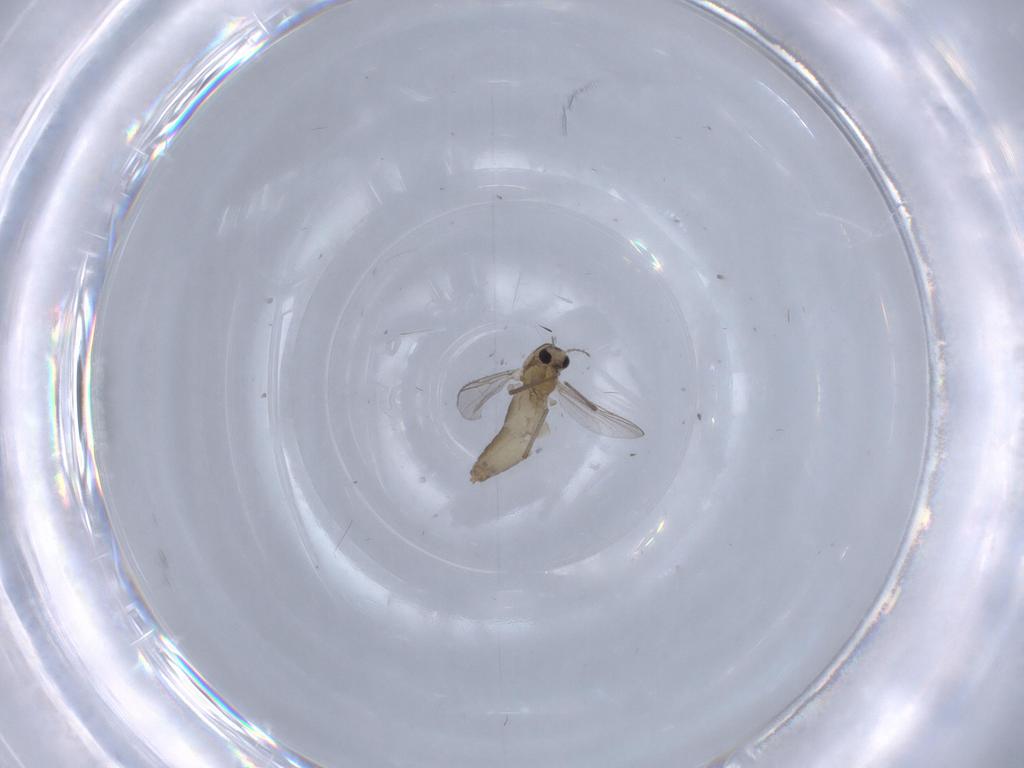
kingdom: Animalia
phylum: Arthropoda
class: Insecta
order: Diptera
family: Chironomidae
